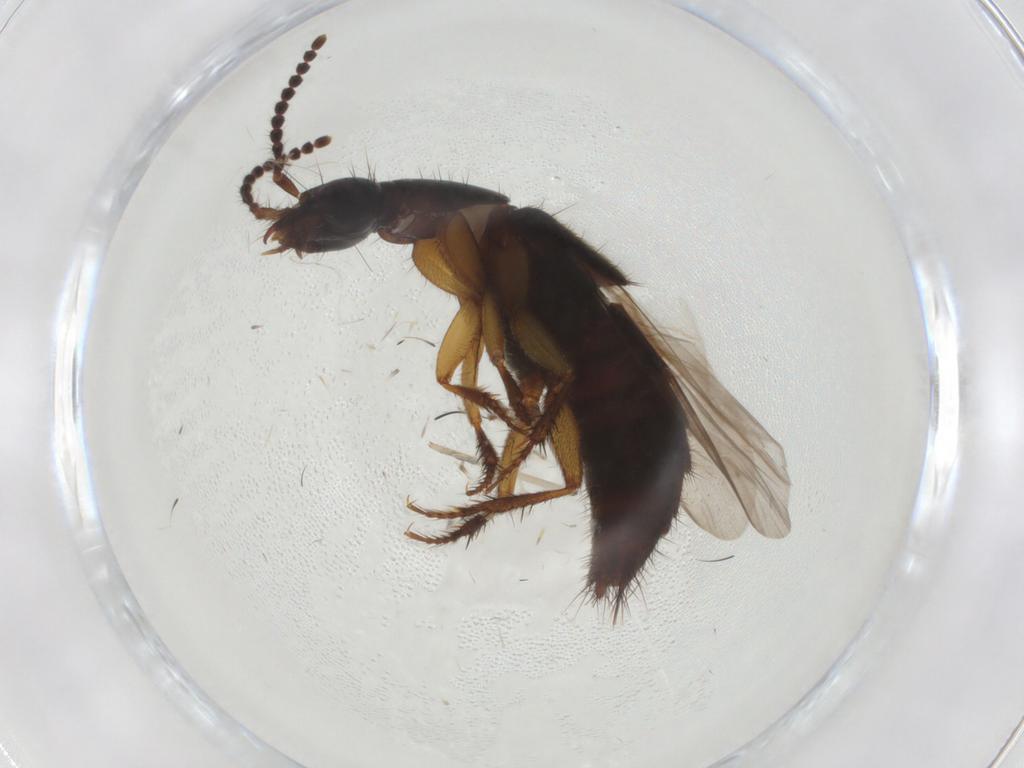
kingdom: Animalia
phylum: Arthropoda
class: Insecta
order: Coleoptera
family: Staphylinidae
